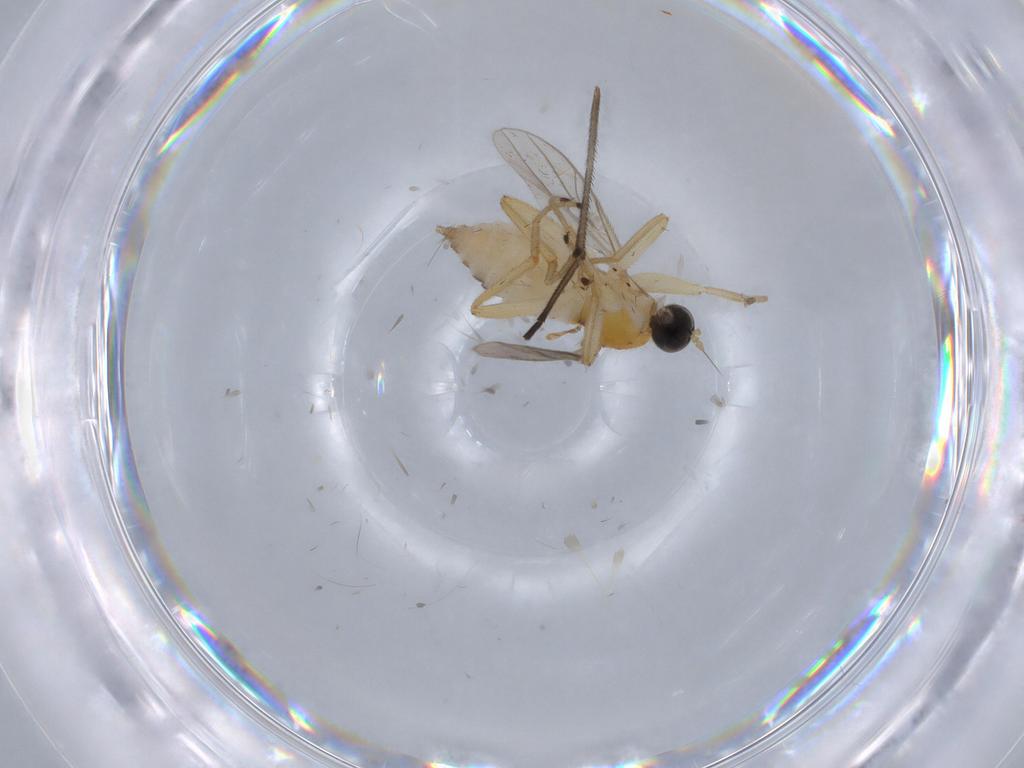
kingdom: Animalia
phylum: Arthropoda
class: Insecta
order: Diptera
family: Hybotidae
